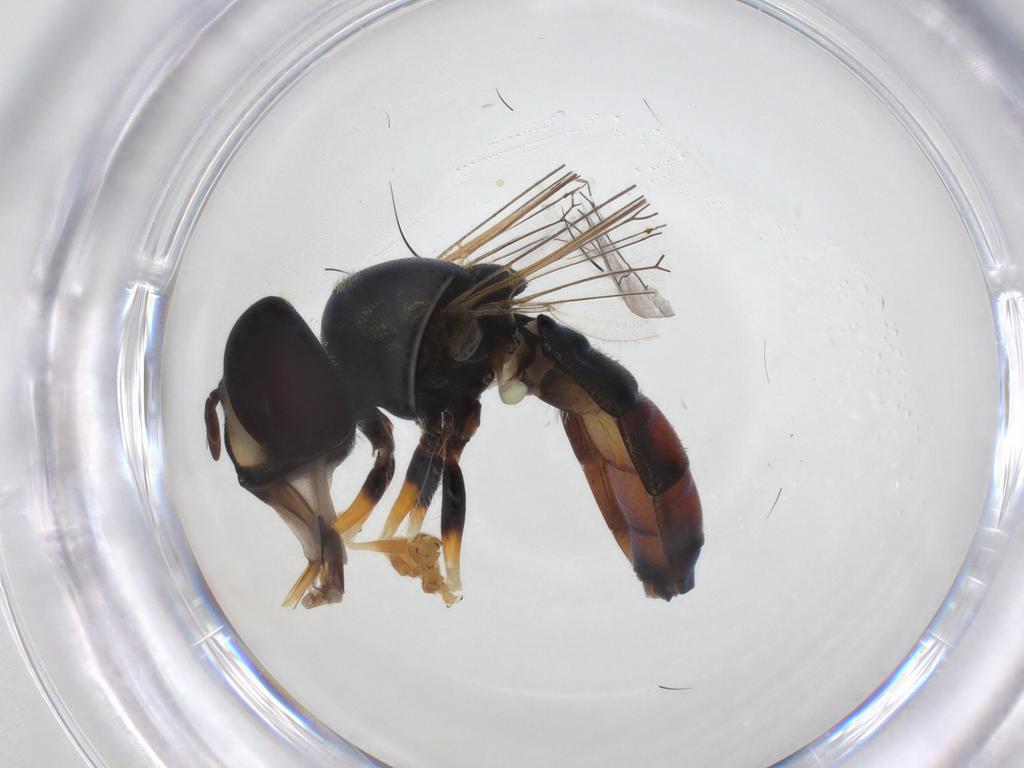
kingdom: Animalia
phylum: Arthropoda
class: Insecta
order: Diptera
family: Syrphidae
